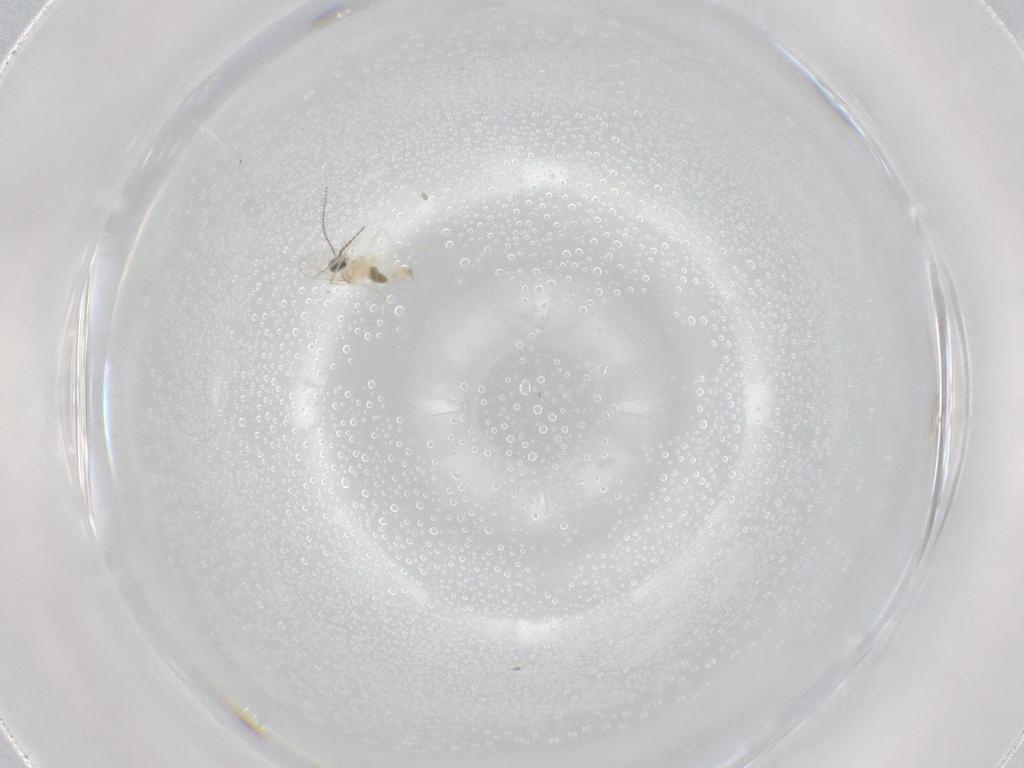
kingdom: Animalia
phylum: Arthropoda
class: Insecta
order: Diptera
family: Cecidomyiidae
